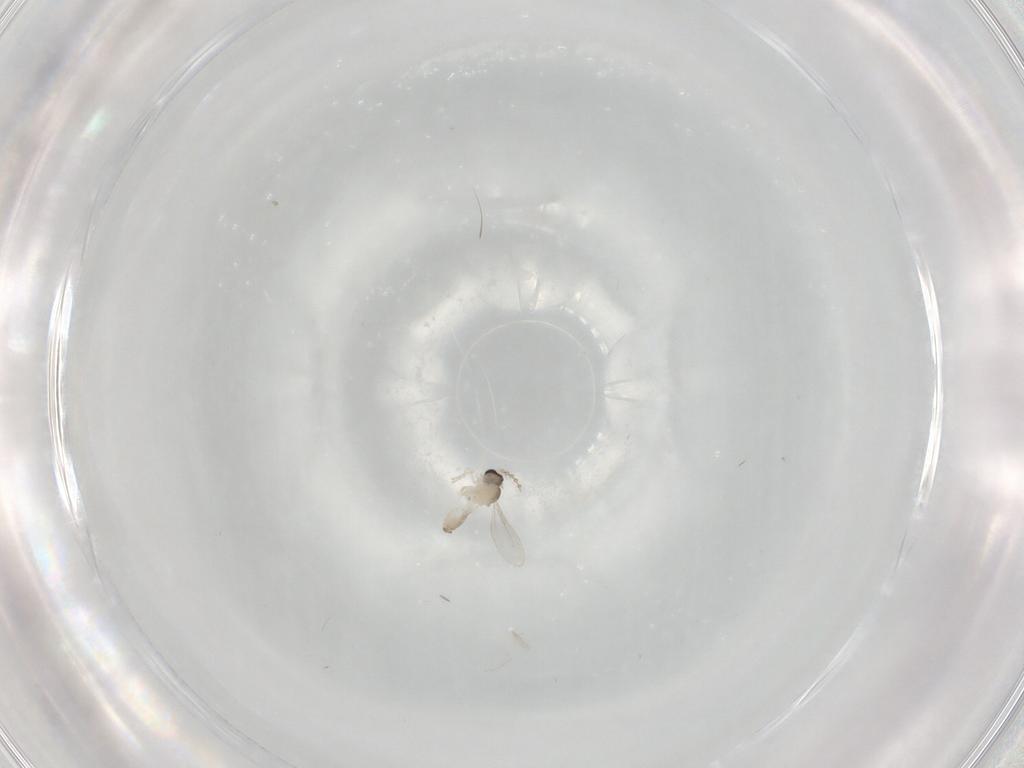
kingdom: Animalia
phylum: Arthropoda
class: Insecta
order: Diptera
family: Cecidomyiidae
